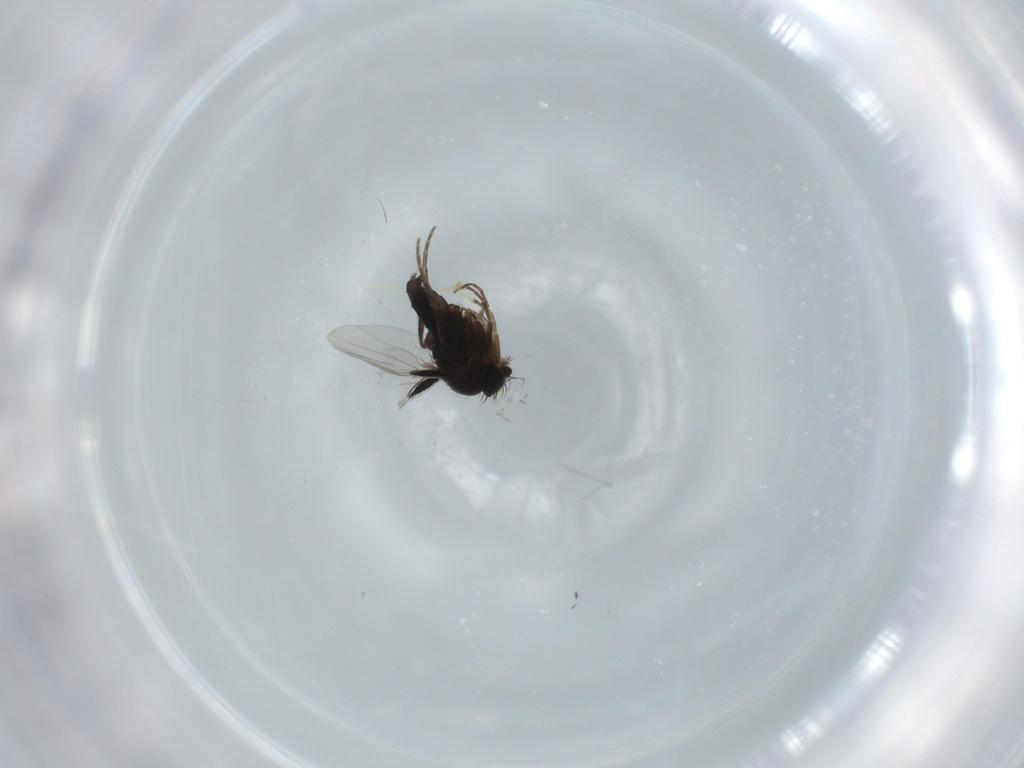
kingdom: Animalia
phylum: Arthropoda
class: Insecta
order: Diptera
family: Phoridae
